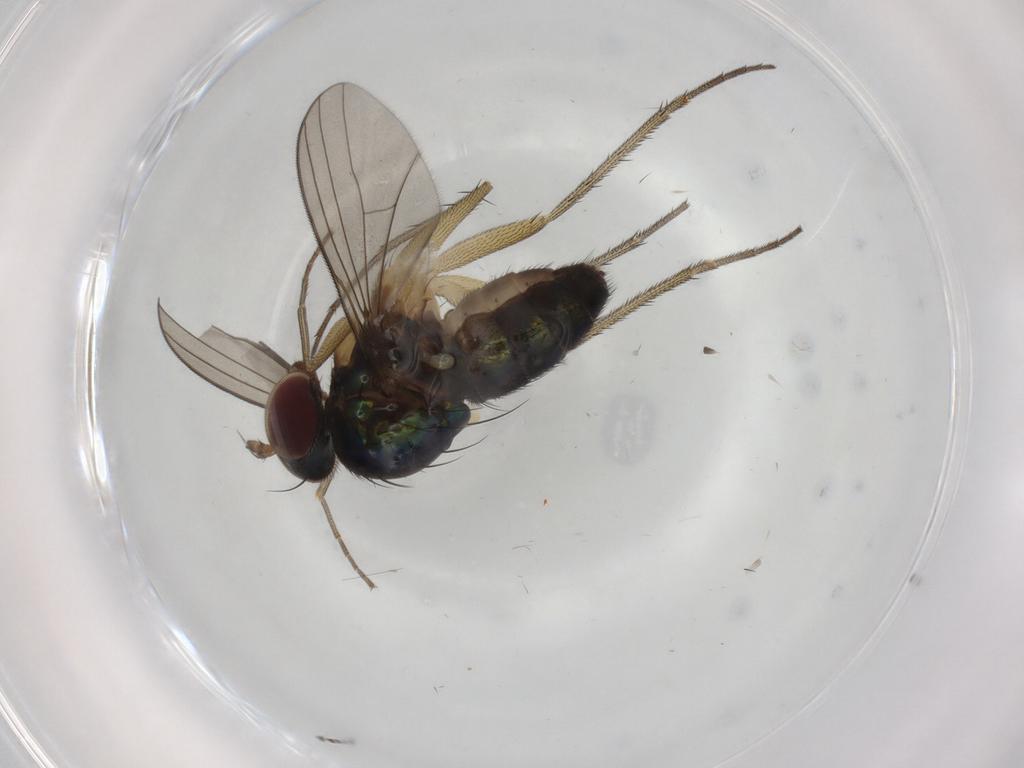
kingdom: Animalia
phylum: Arthropoda
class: Insecta
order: Diptera
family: Dolichopodidae
